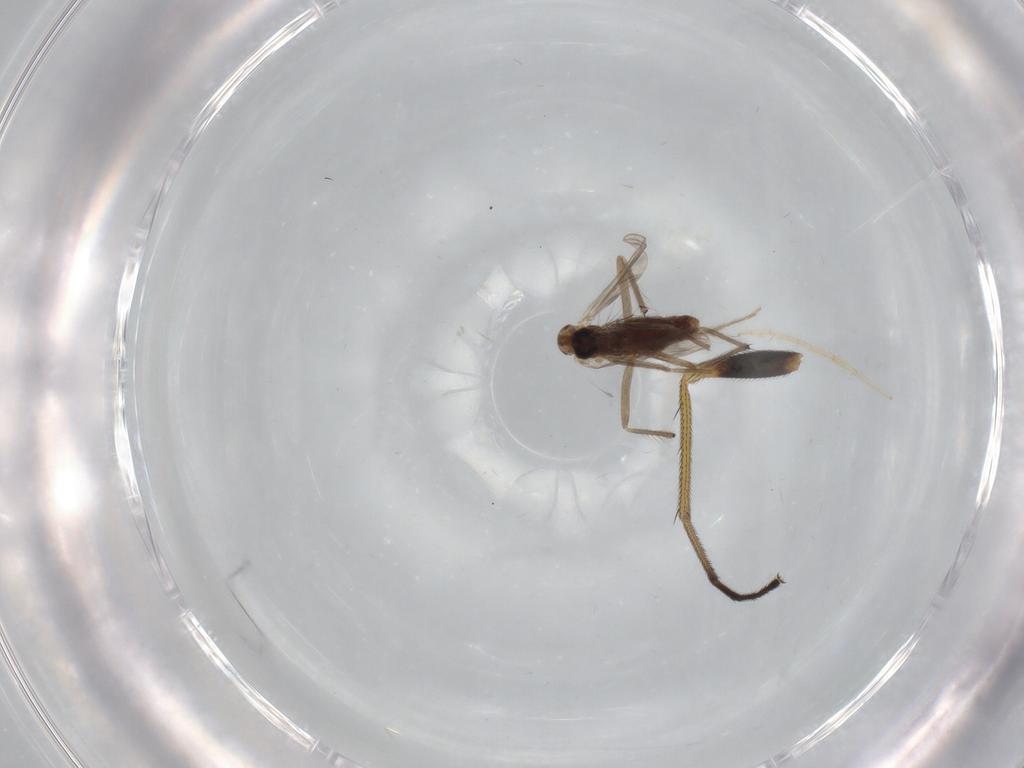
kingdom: Animalia
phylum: Arthropoda
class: Insecta
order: Diptera
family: Chironomidae
